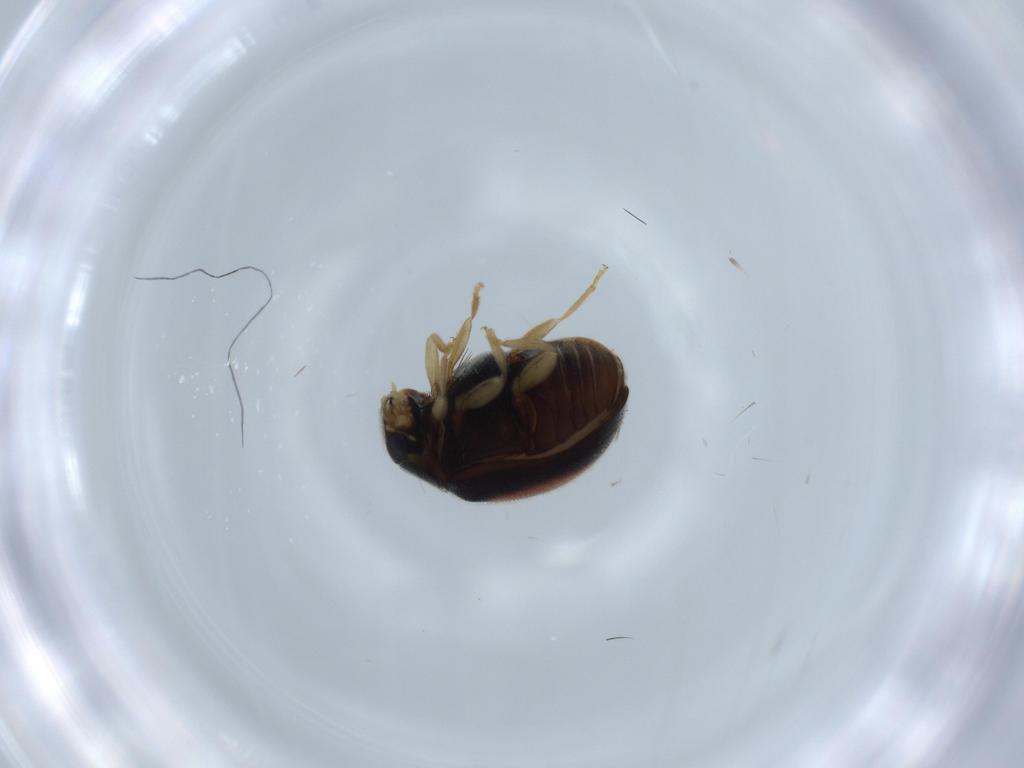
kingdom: Animalia
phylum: Arthropoda
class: Insecta
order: Coleoptera
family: Coccinellidae
